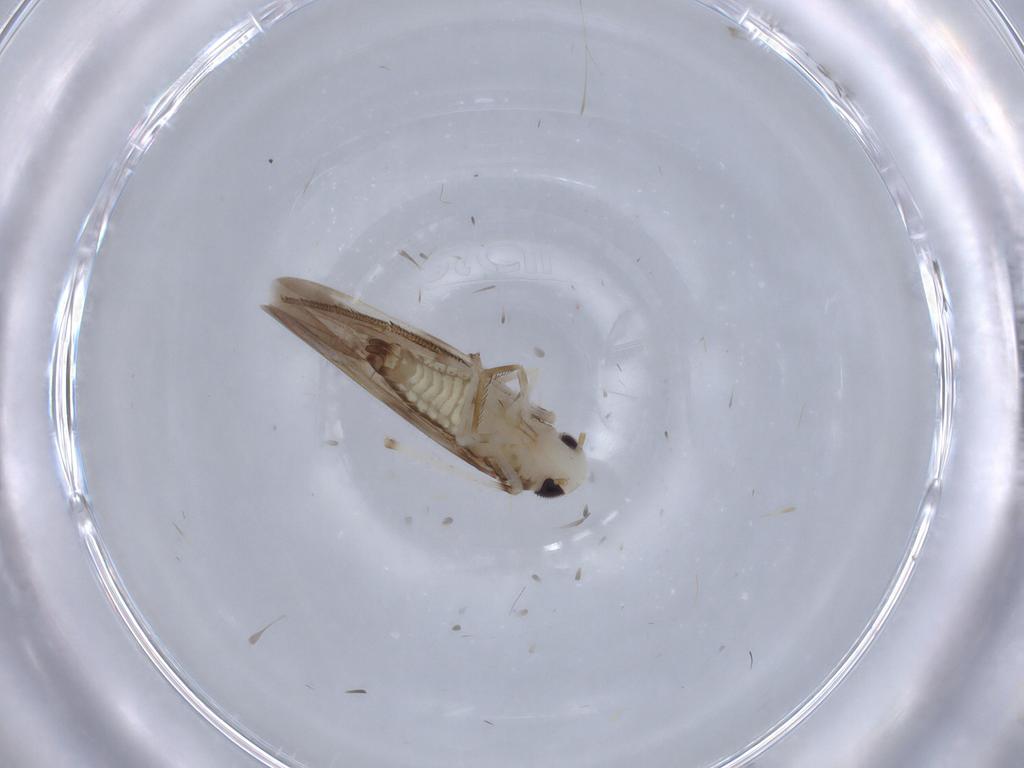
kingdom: Animalia
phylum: Arthropoda
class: Insecta
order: Hemiptera
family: Cicadellidae
